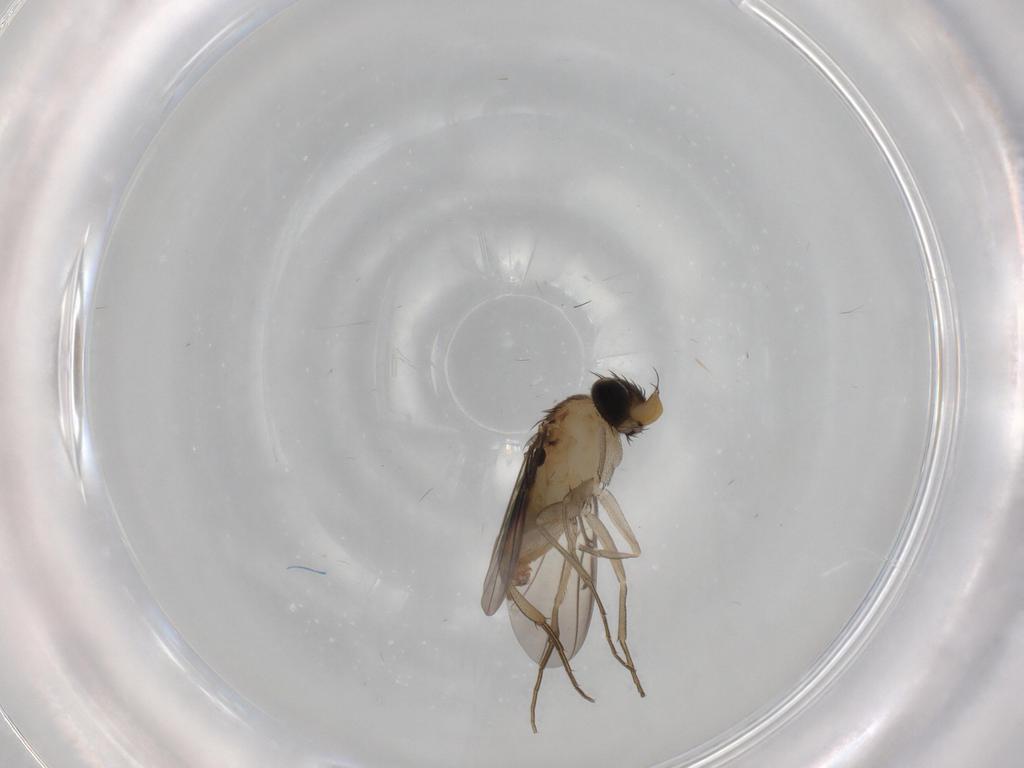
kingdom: Animalia
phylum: Arthropoda
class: Insecta
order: Diptera
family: Phoridae
